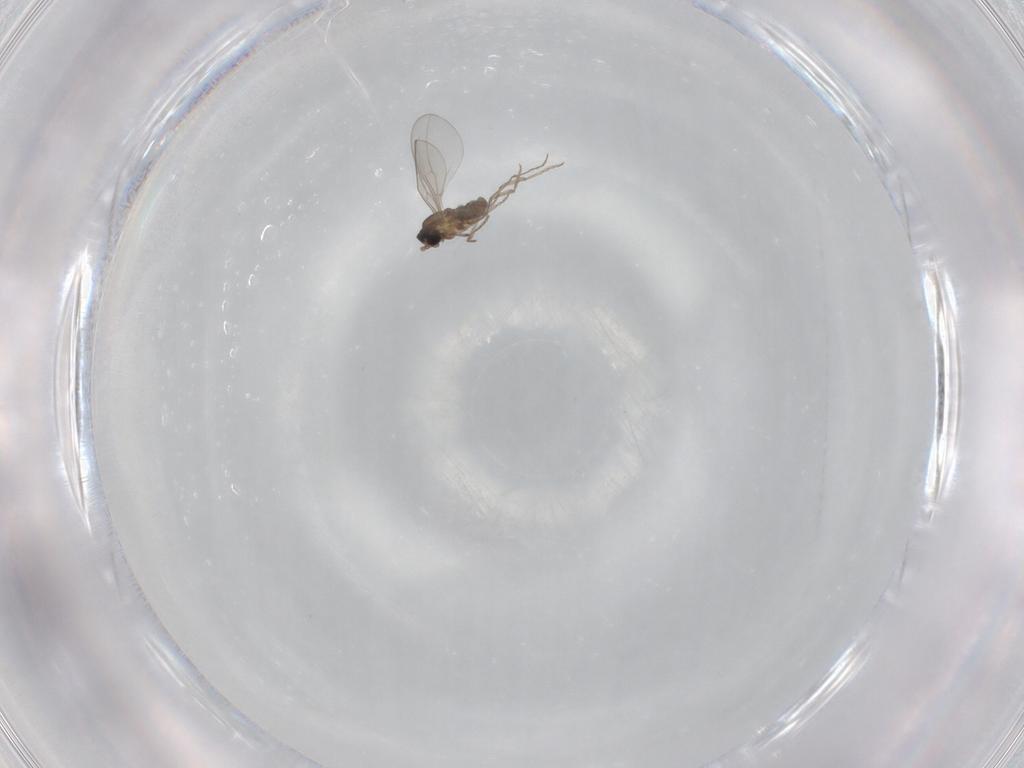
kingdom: Animalia
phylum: Arthropoda
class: Insecta
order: Diptera
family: Cecidomyiidae
